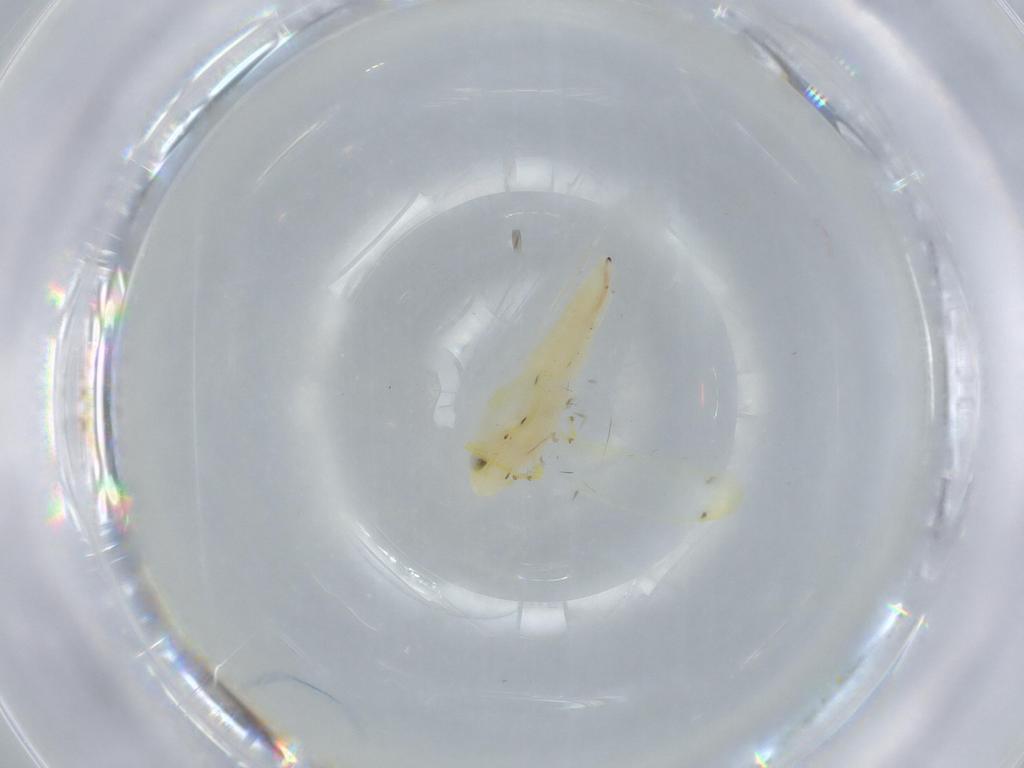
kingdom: Animalia
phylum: Arthropoda
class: Insecta
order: Hemiptera
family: Cicadellidae
